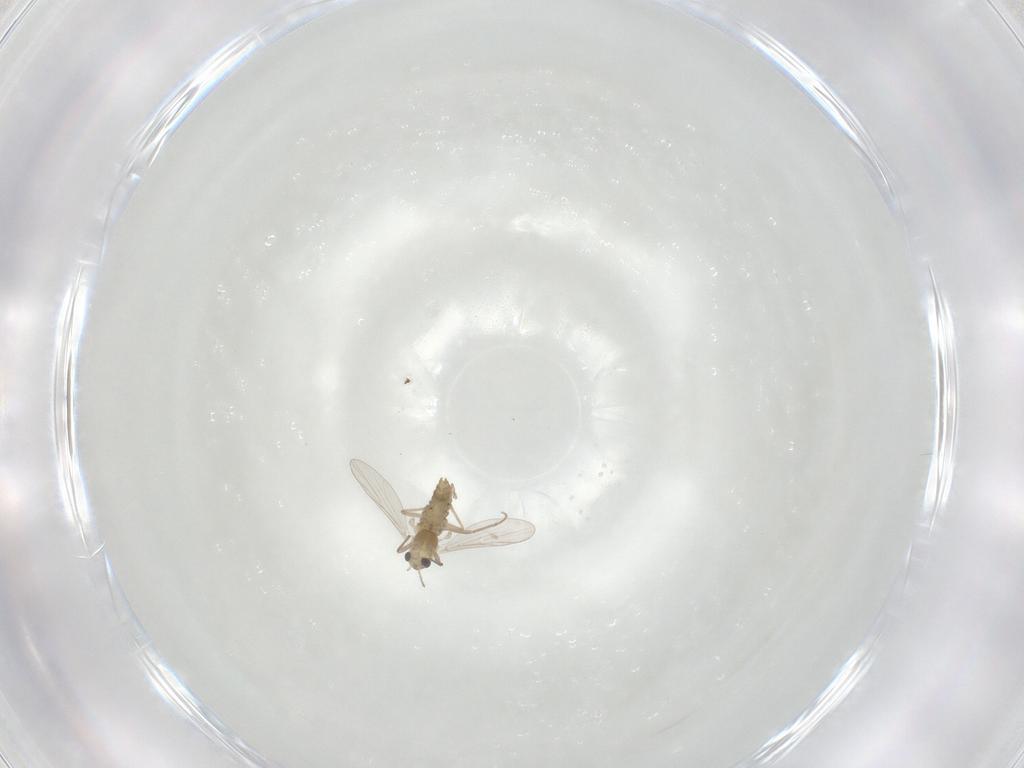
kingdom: Animalia
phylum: Arthropoda
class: Insecta
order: Diptera
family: Chironomidae
